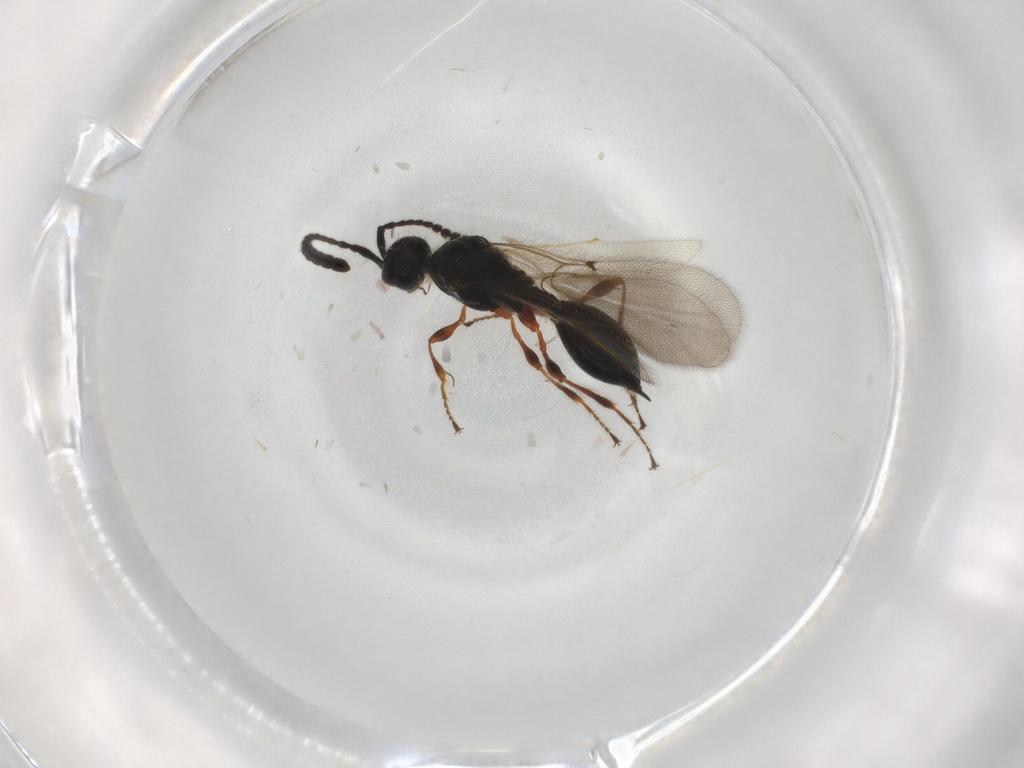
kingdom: Animalia
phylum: Arthropoda
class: Insecta
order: Hymenoptera
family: Diapriidae
